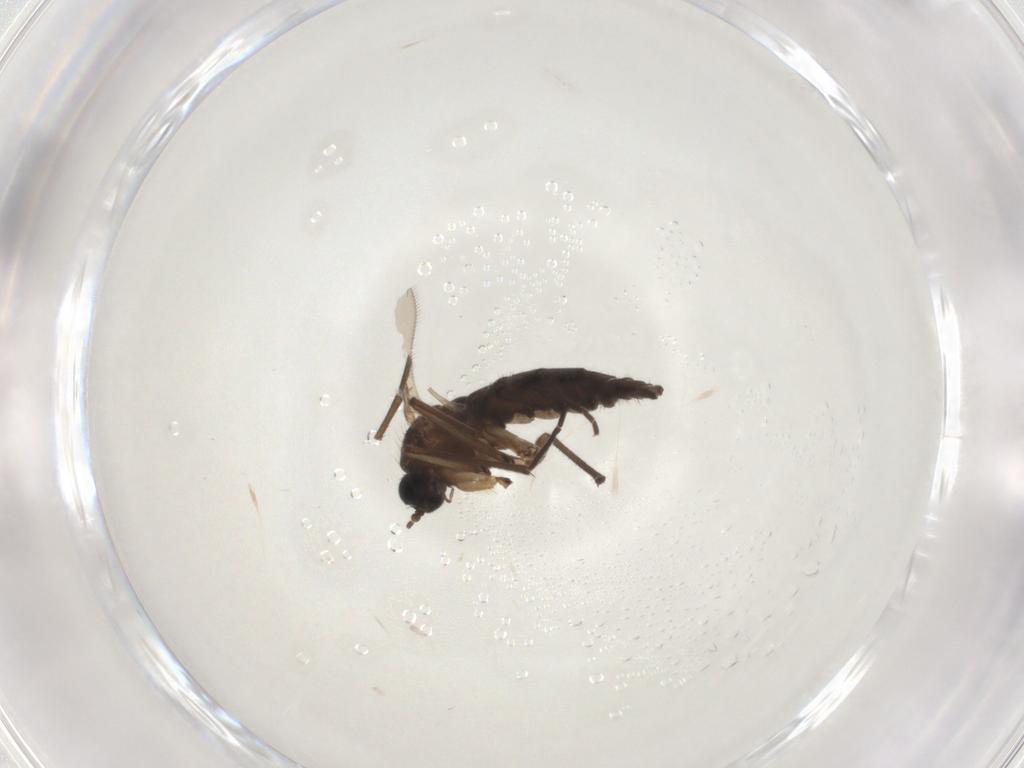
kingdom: Animalia
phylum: Arthropoda
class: Insecta
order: Diptera
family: Sciaridae
